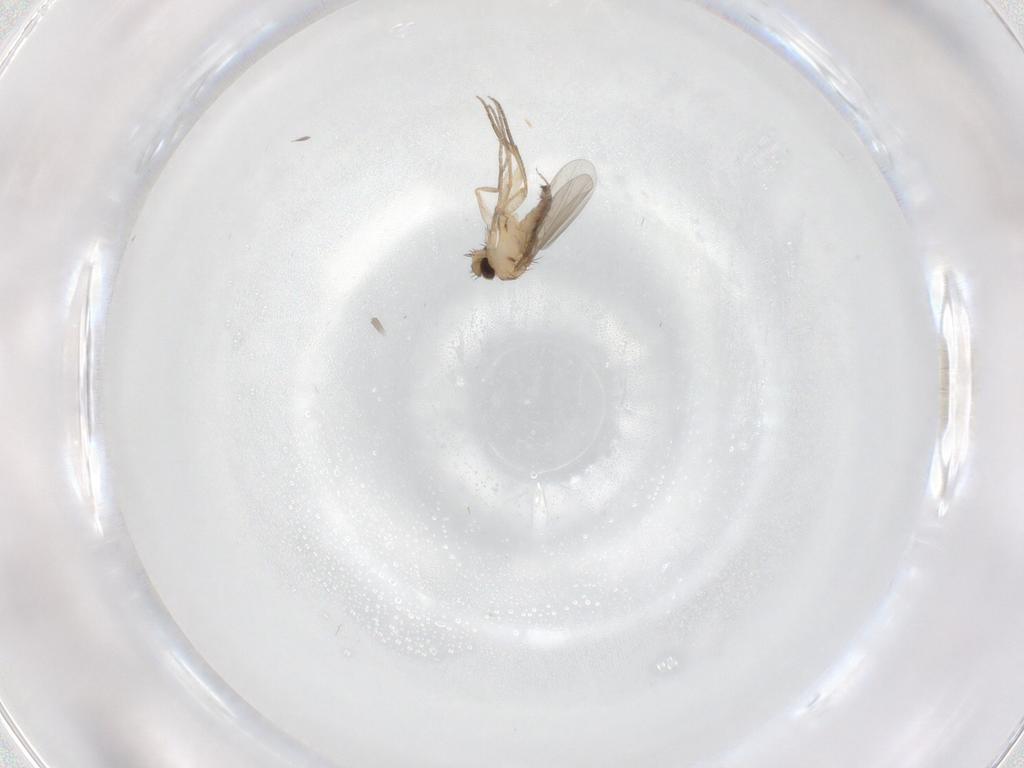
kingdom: Animalia
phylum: Arthropoda
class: Insecta
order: Diptera
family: Phoridae
